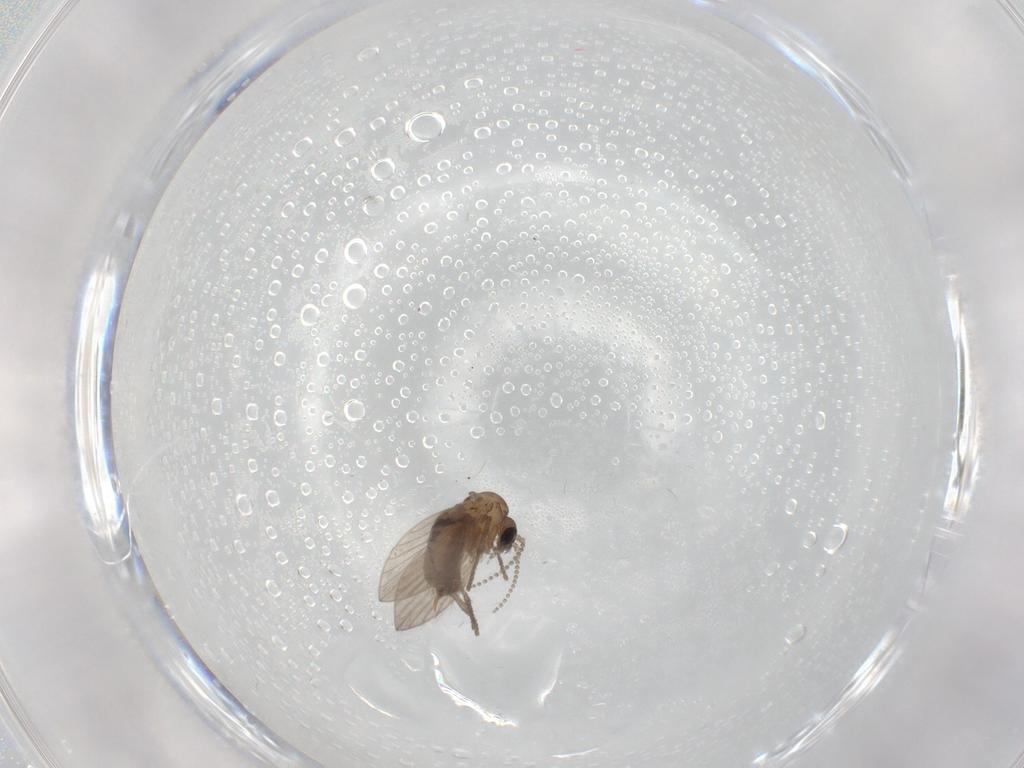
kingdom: Animalia
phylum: Arthropoda
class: Insecta
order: Diptera
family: Psychodidae
